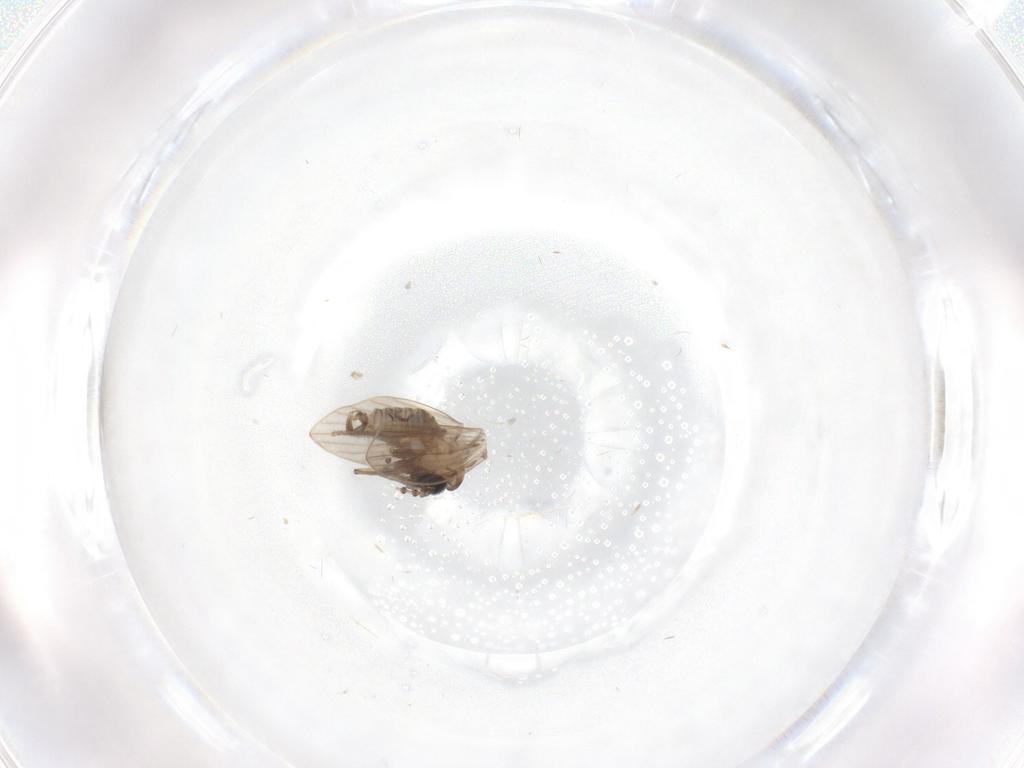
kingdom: Animalia
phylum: Arthropoda
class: Insecta
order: Diptera
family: Psychodidae
